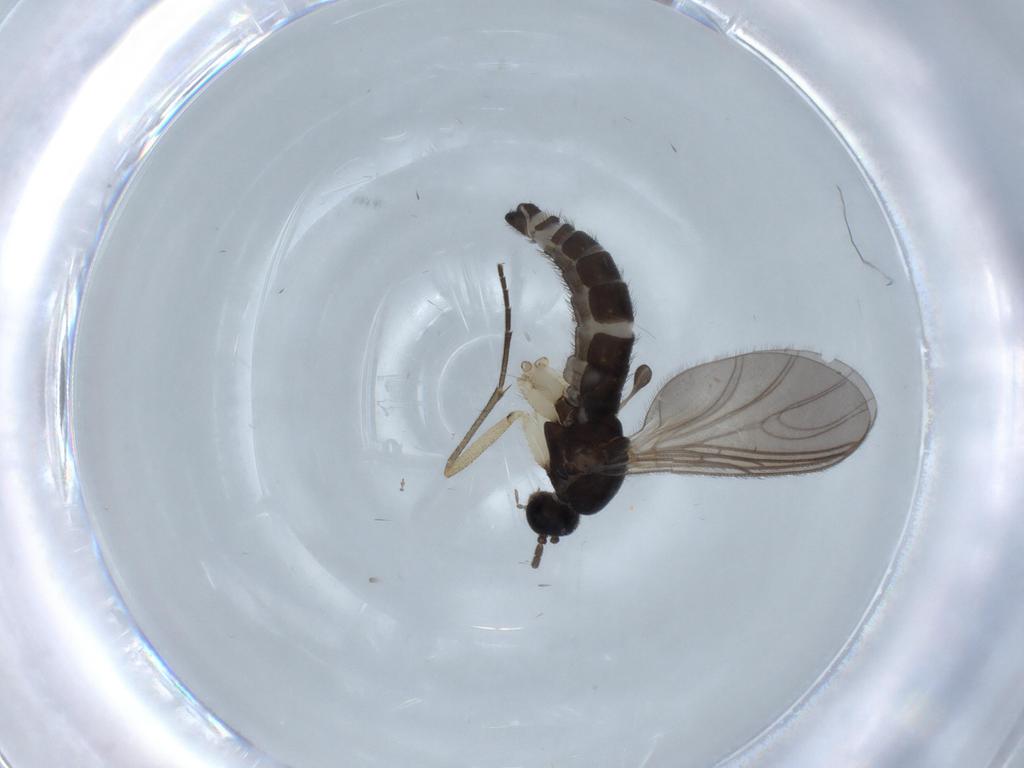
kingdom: Animalia
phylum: Arthropoda
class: Insecta
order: Diptera
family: Sciaridae
